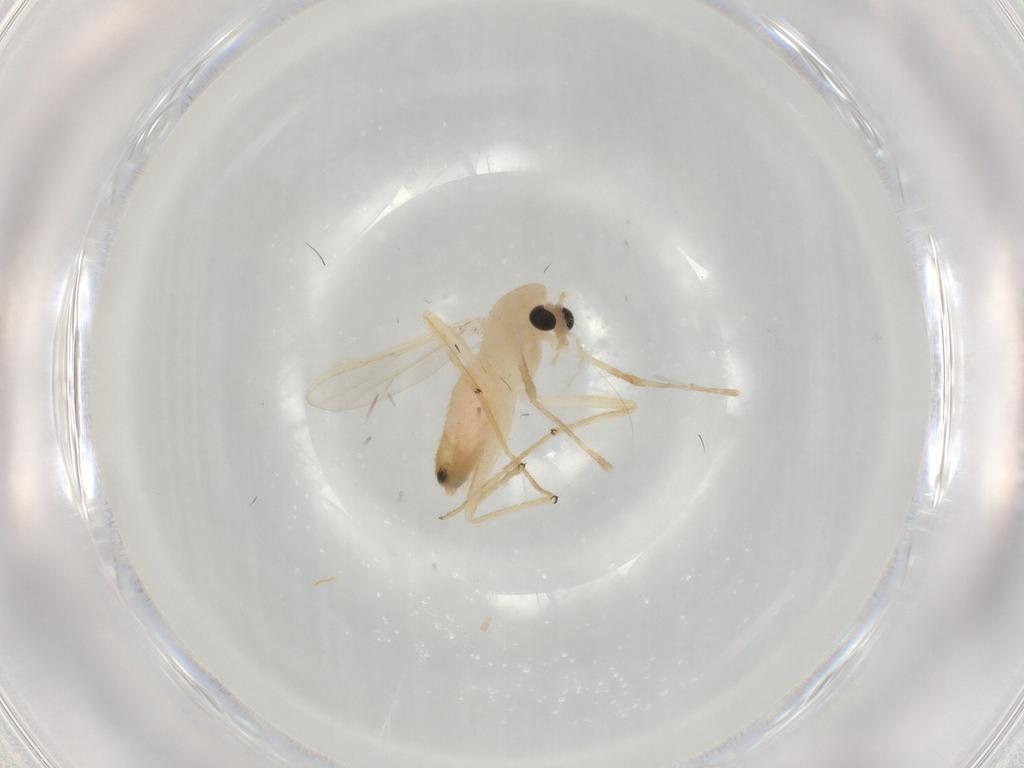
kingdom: Animalia
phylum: Arthropoda
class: Insecta
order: Diptera
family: Chironomidae
